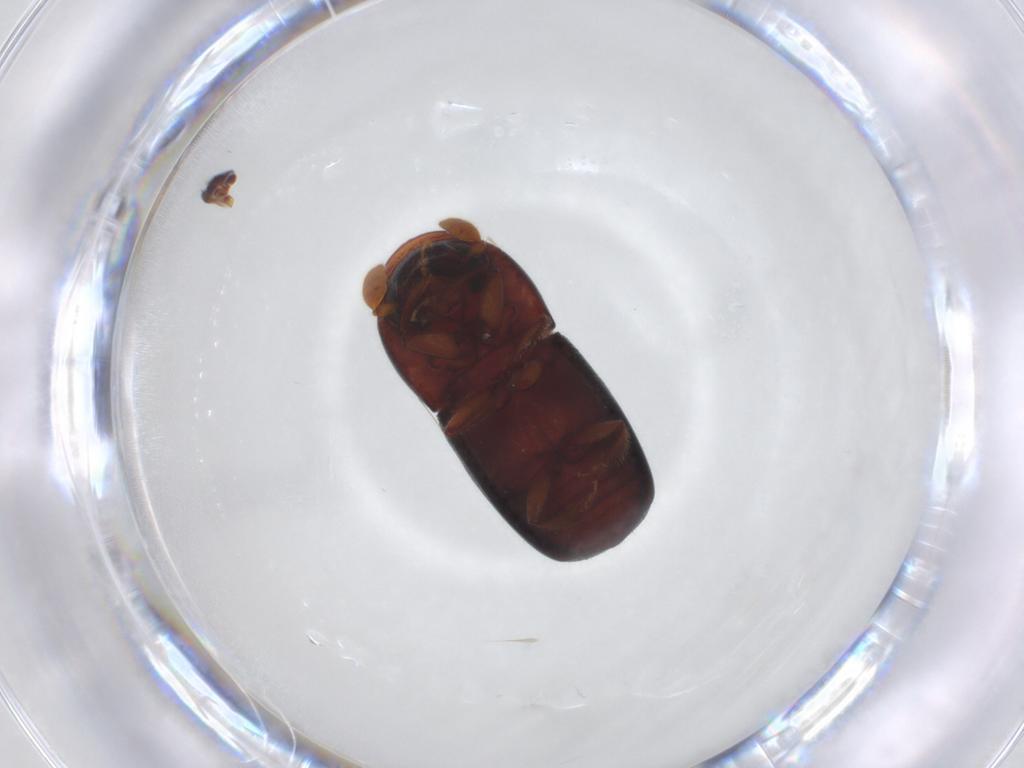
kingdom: Animalia
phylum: Arthropoda
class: Insecta
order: Coleoptera
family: Curculionidae
